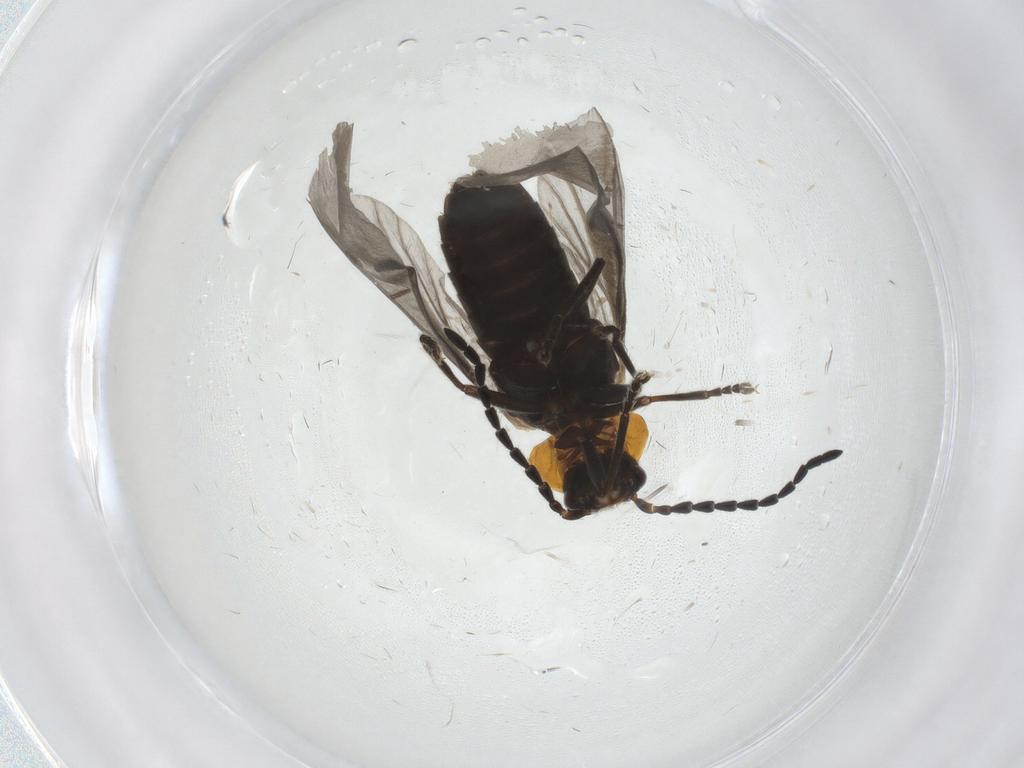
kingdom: Animalia
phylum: Arthropoda
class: Insecta
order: Coleoptera
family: Cantharidae
